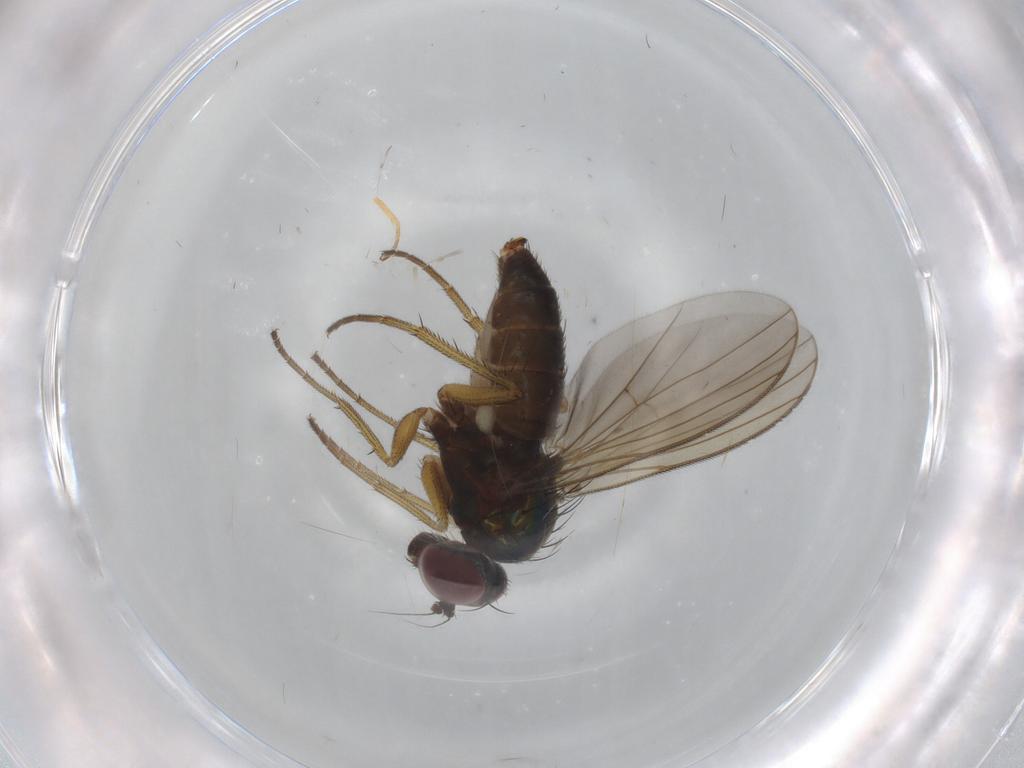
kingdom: Animalia
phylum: Arthropoda
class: Insecta
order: Diptera
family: Dolichopodidae
